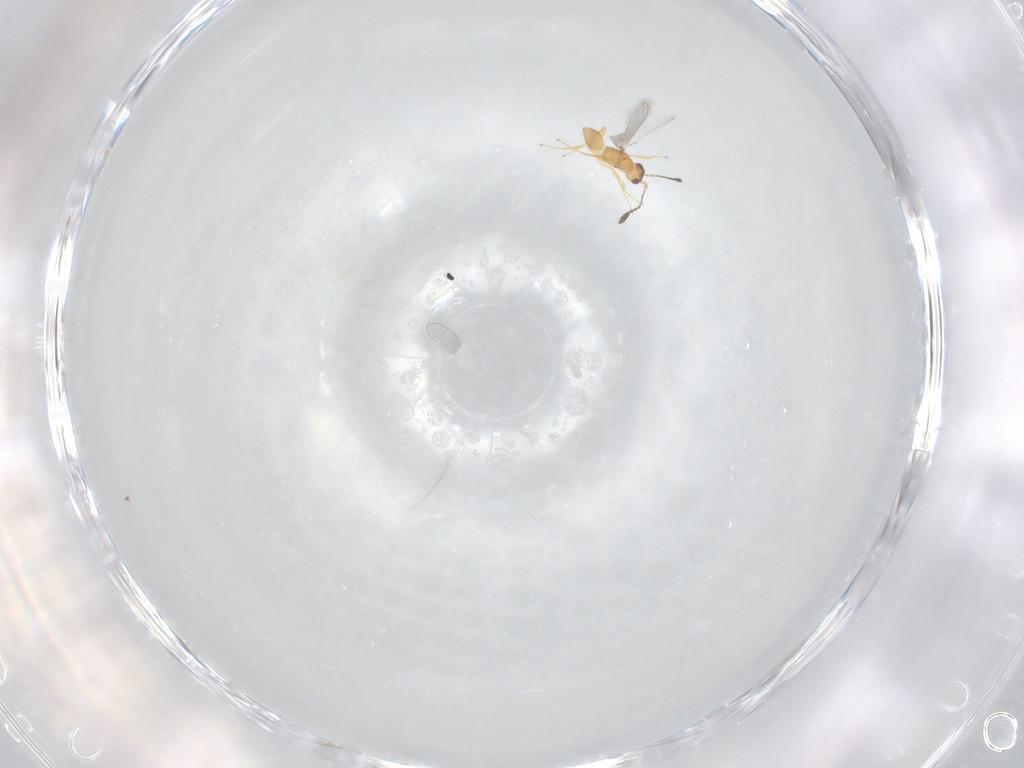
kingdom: Animalia
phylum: Arthropoda
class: Insecta
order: Hymenoptera
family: Mymaridae
